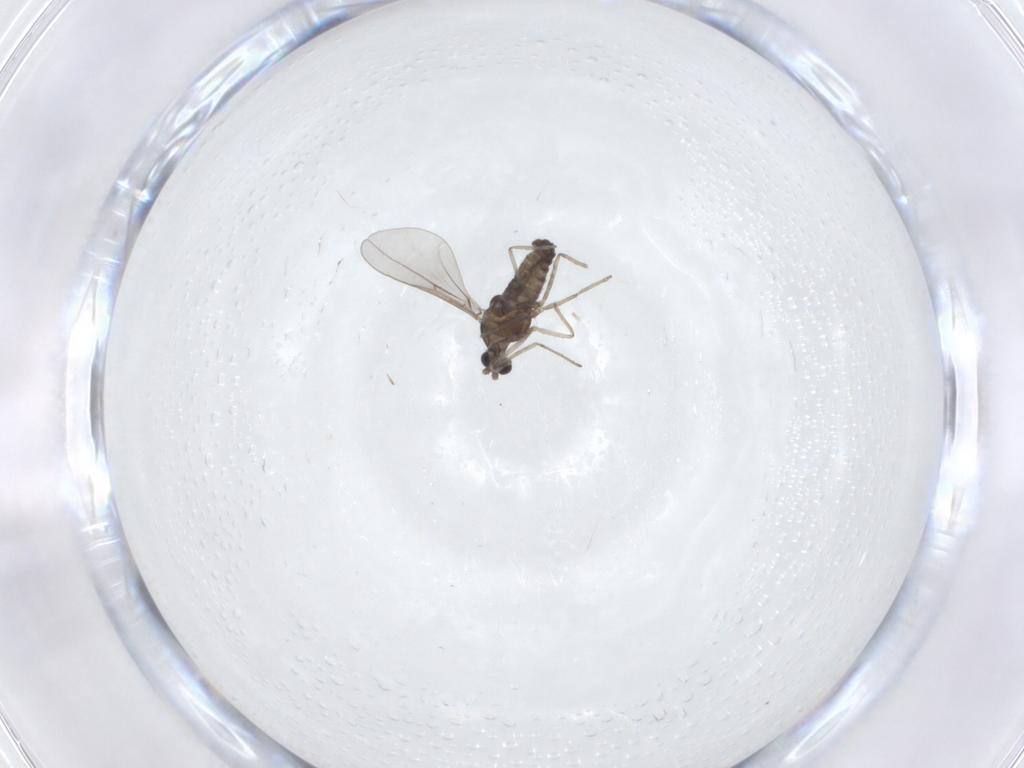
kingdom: Animalia
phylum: Arthropoda
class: Insecta
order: Diptera
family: Cecidomyiidae
